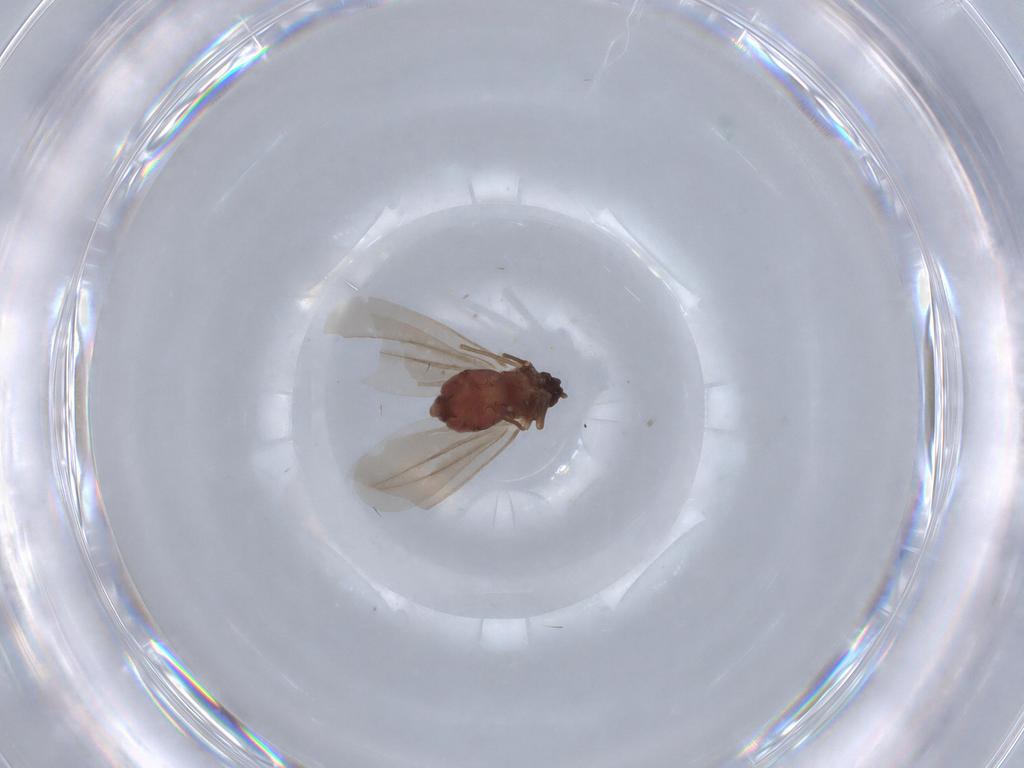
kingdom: Animalia
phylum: Arthropoda
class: Insecta
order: Hemiptera
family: Aleyrodidae
